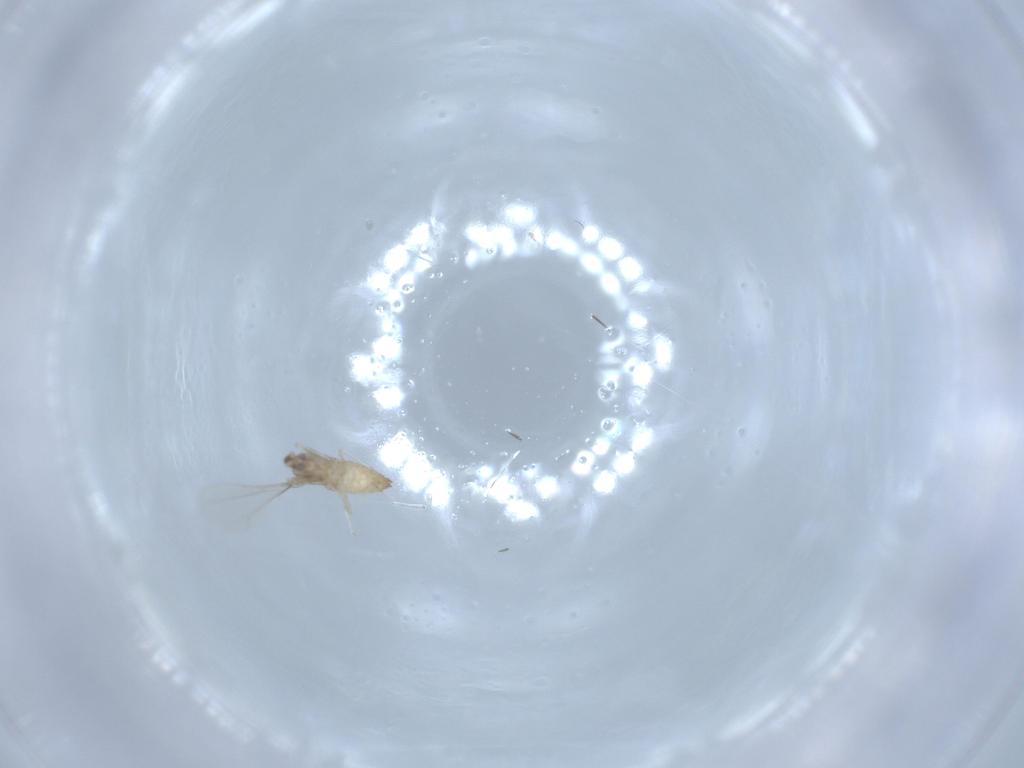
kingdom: Animalia
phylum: Arthropoda
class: Insecta
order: Diptera
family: Cecidomyiidae
